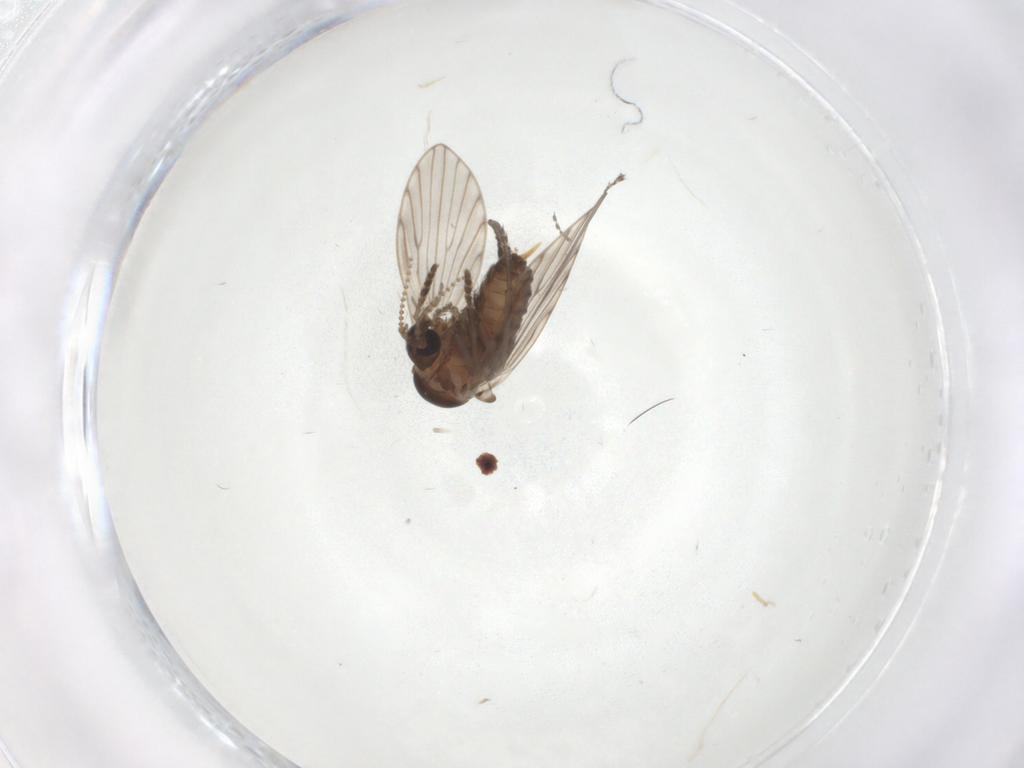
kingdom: Animalia
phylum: Arthropoda
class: Insecta
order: Diptera
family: Psychodidae
